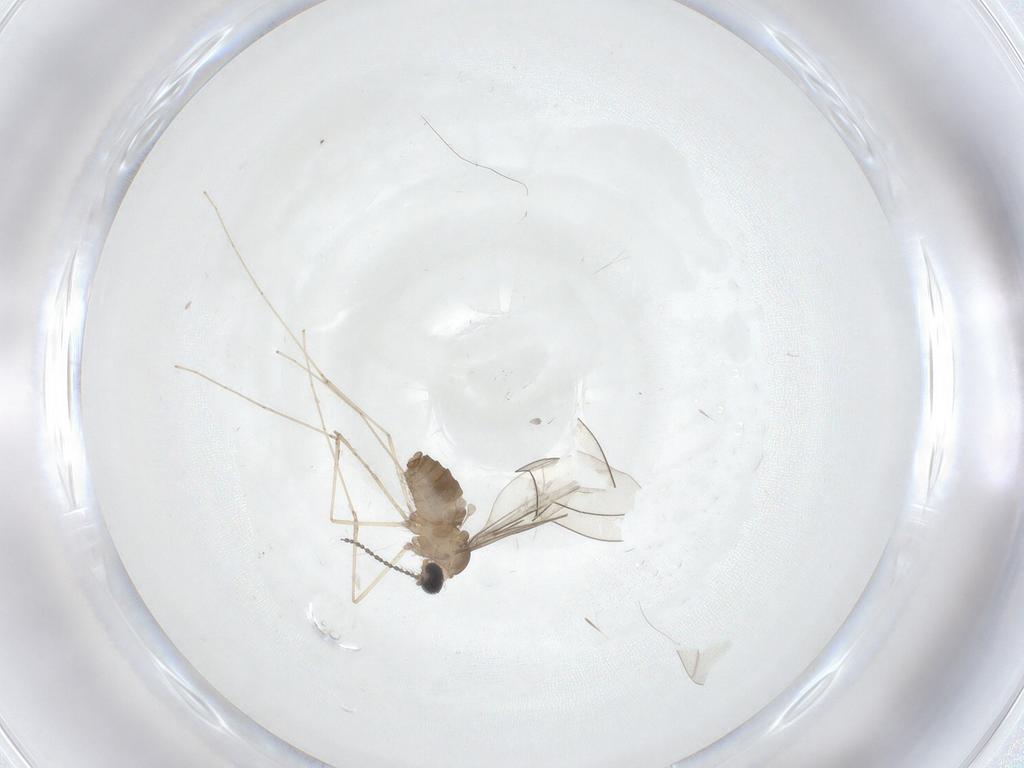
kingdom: Animalia
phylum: Arthropoda
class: Insecta
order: Diptera
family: Cecidomyiidae
